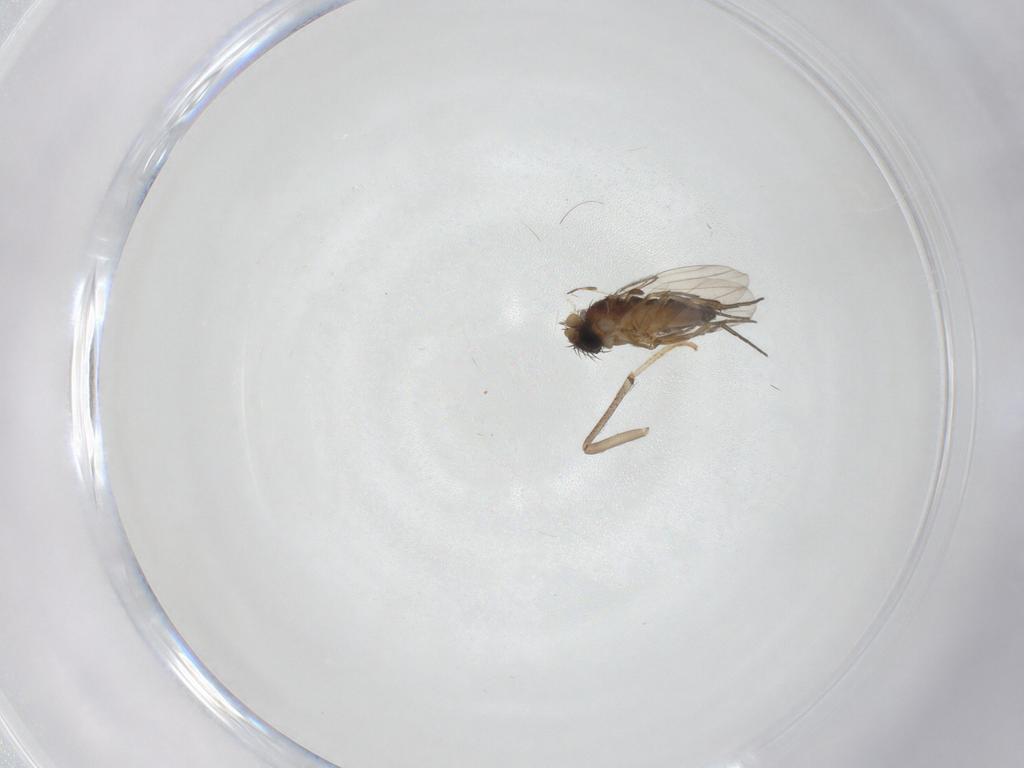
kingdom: Animalia
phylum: Arthropoda
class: Insecta
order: Diptera
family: Psychodidae
